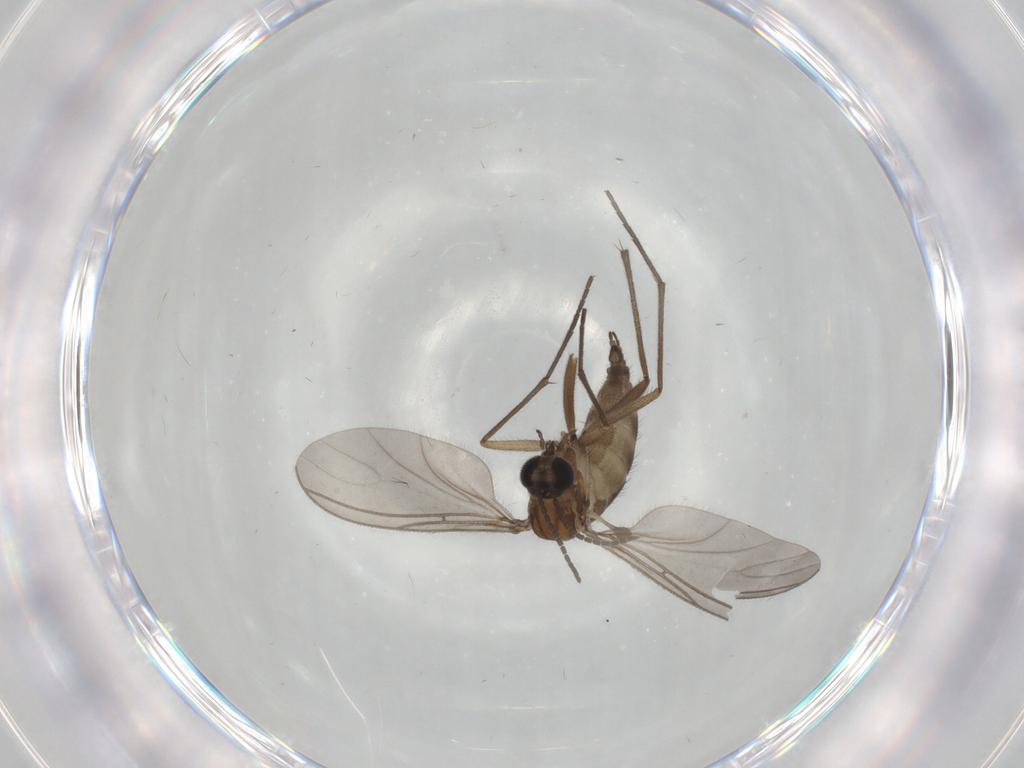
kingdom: Animalia
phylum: Arthropoda
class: Insecta
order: Diptera
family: Sciaridae
